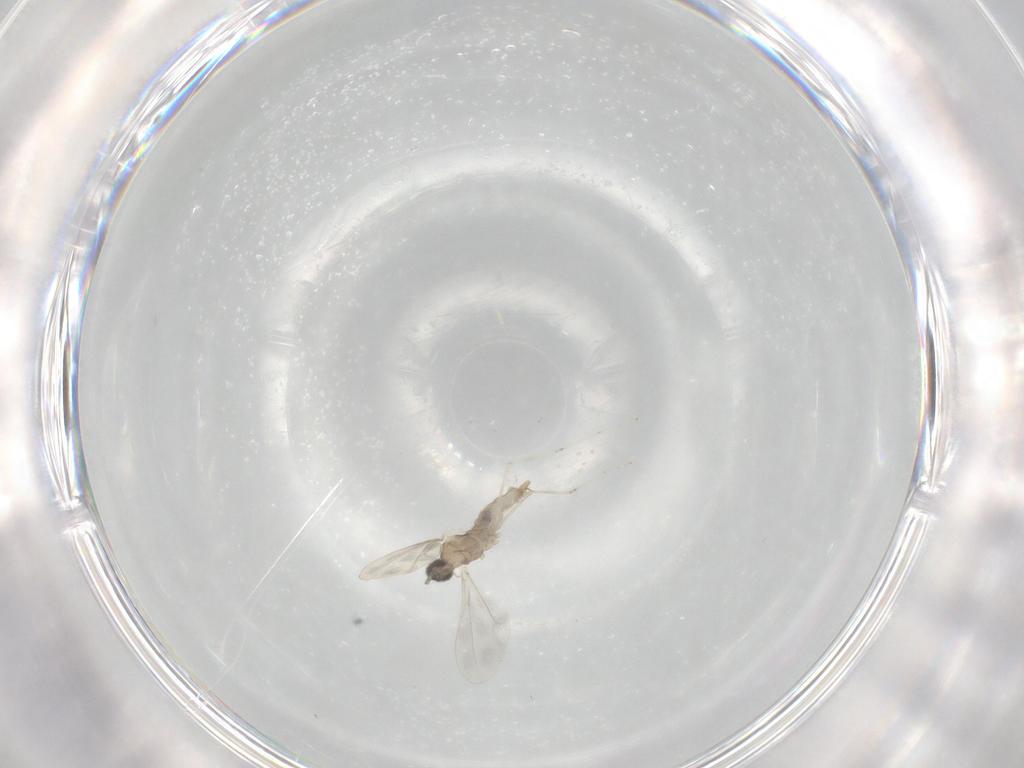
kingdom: Animalia
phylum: Arthropoda
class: Insecta
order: Diptera
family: Cecidomyiidae
